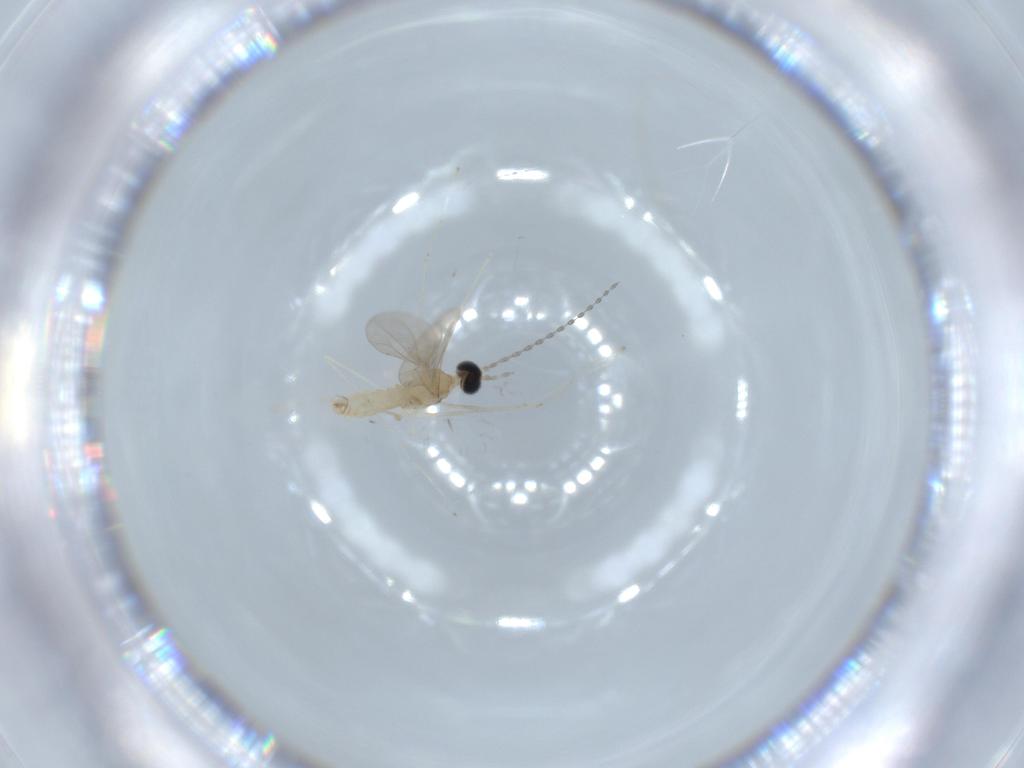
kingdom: Animalia
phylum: Arthropoda
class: Insecta
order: Diptera
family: Cecidomyiidae
